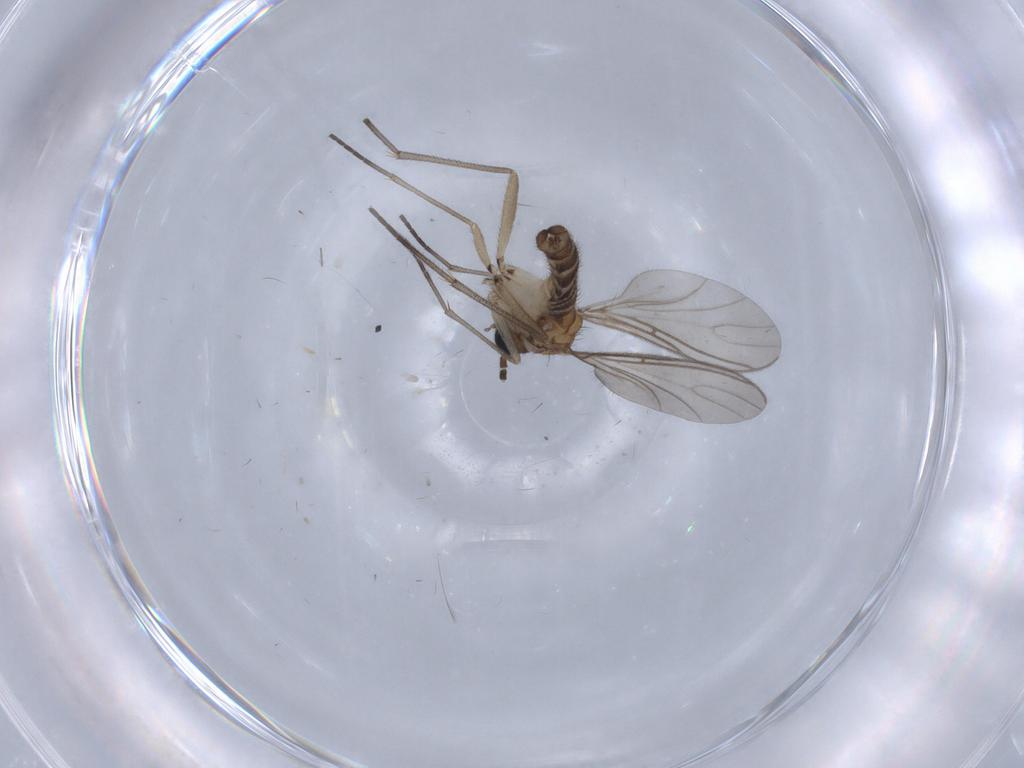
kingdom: Animalia
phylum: Arthropoda
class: Insecta
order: Diptera
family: Sciaridae
